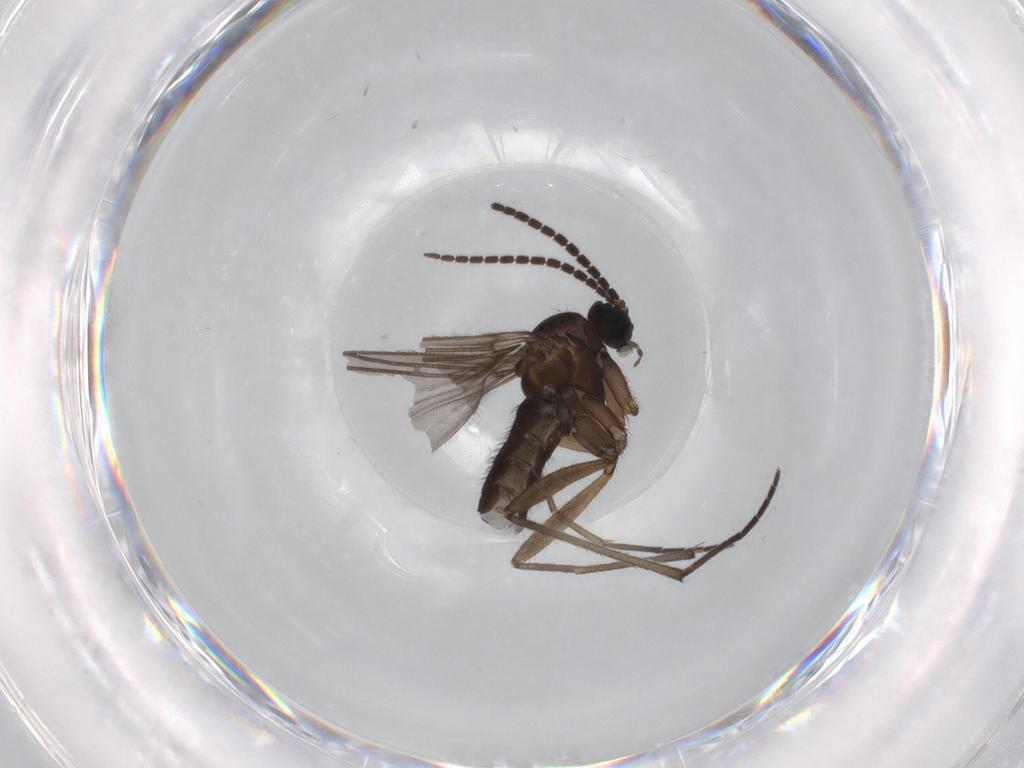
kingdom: Animalia
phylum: Arthropoda
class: Insecta
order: Diptera
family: Sciaridae
